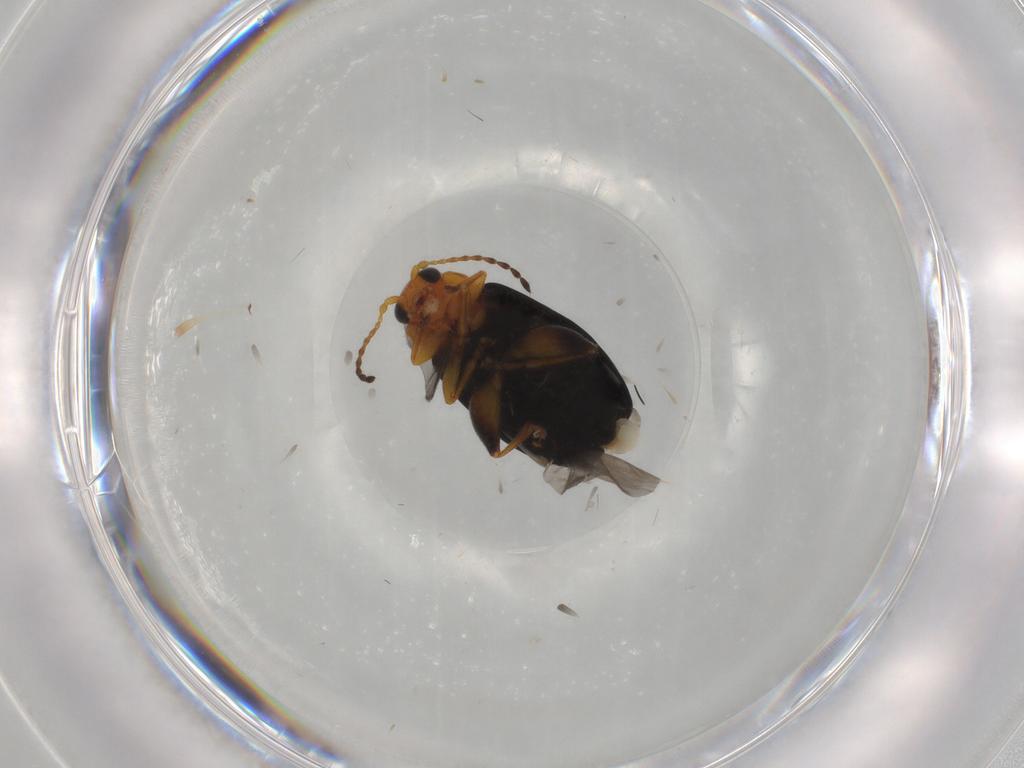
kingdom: Animalia
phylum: Arthropoda
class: Insecta
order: Coleoptera
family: Chrysomelidae
